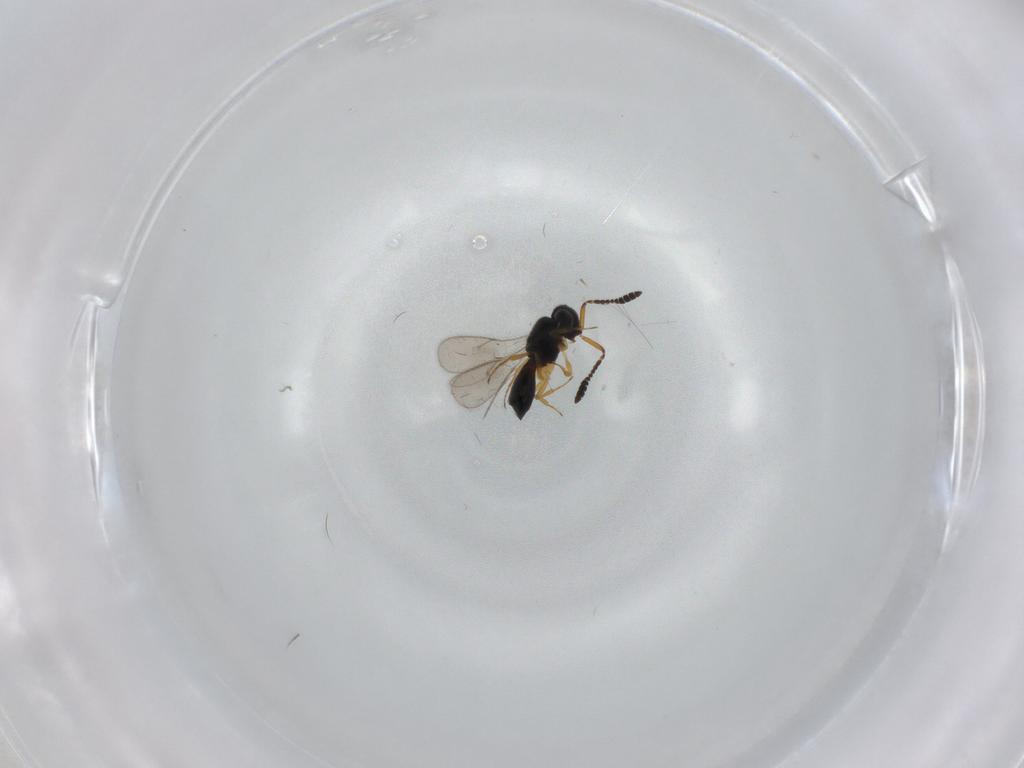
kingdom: Animalia
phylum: Arthropoda
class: Insecta
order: Hymenoptera
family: Scelionidae
